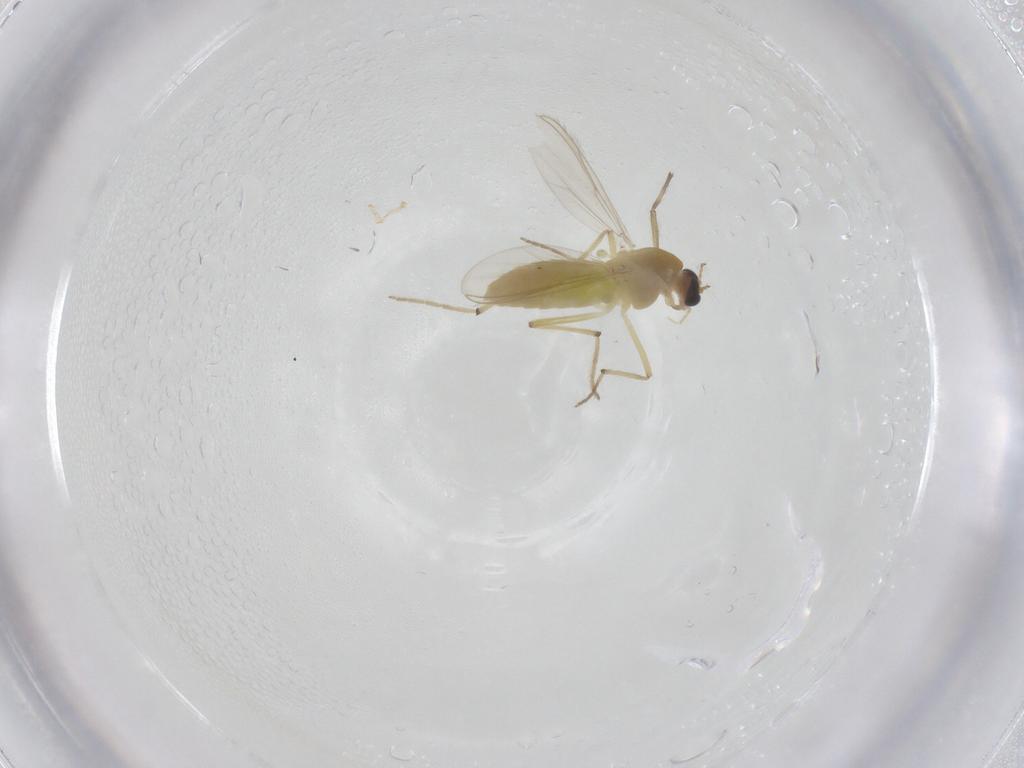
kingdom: Animalia
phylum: Arthropoda
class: Insecta
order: Diptera
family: Chironomidae
